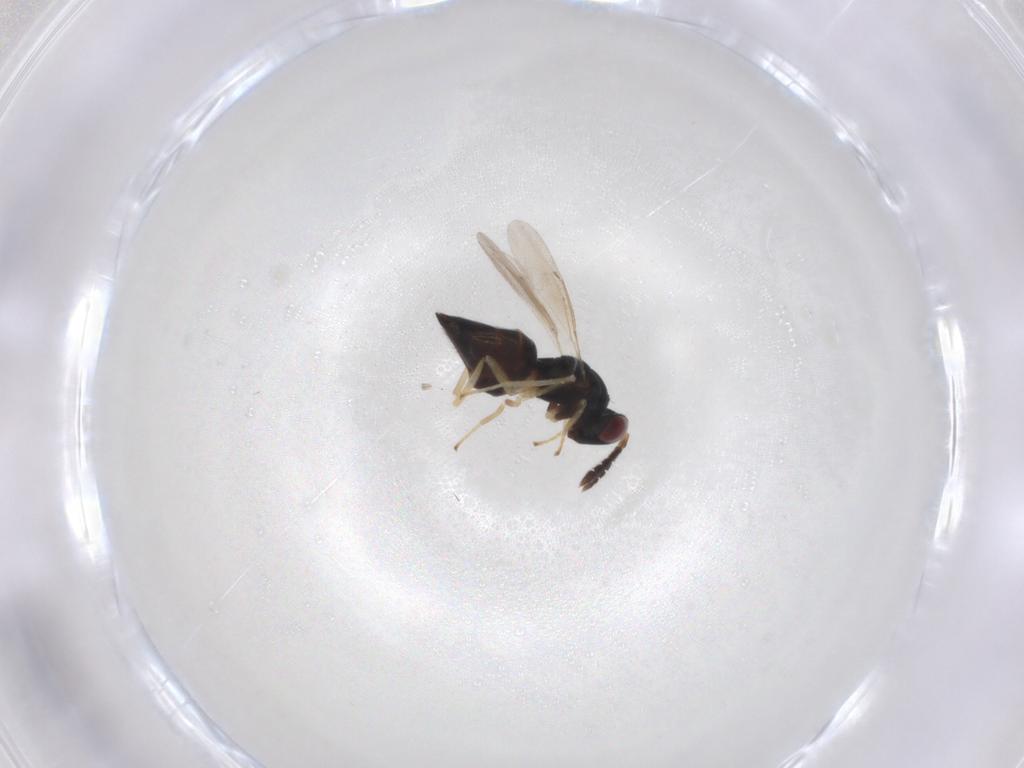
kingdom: Animalia
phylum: Arthropoda
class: Insecta
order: Hymenoptera
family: Eulophidae
